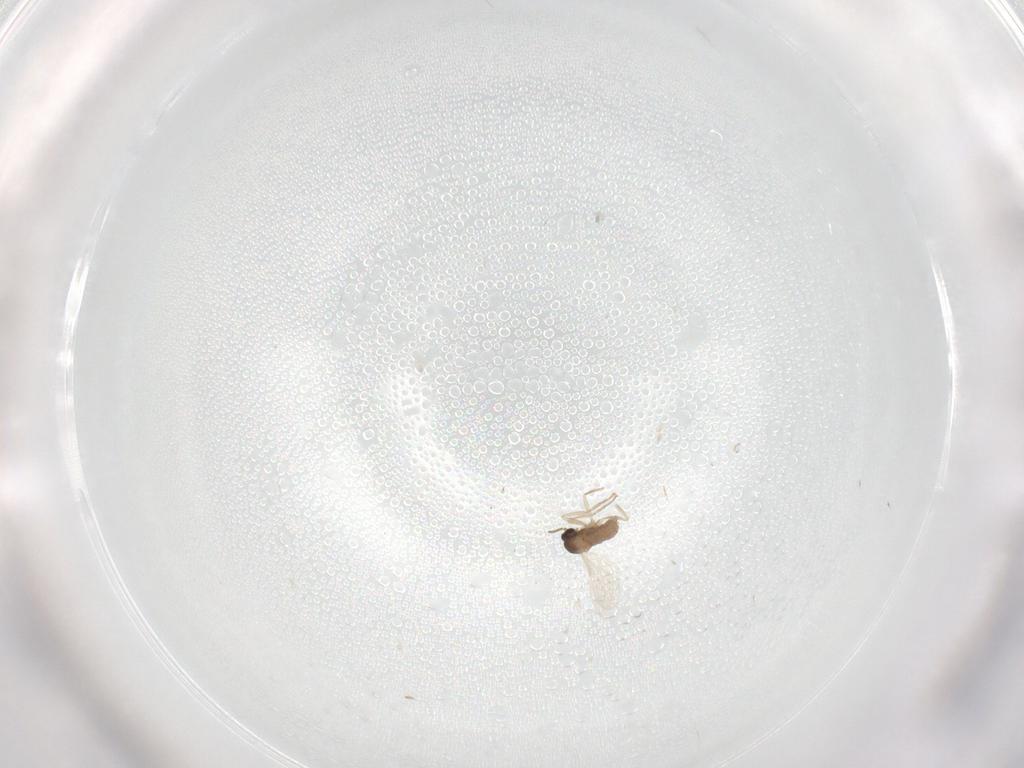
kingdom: Animalia
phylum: Arthropoda
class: Insecta
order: Diptera
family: Cecidomyiidae
